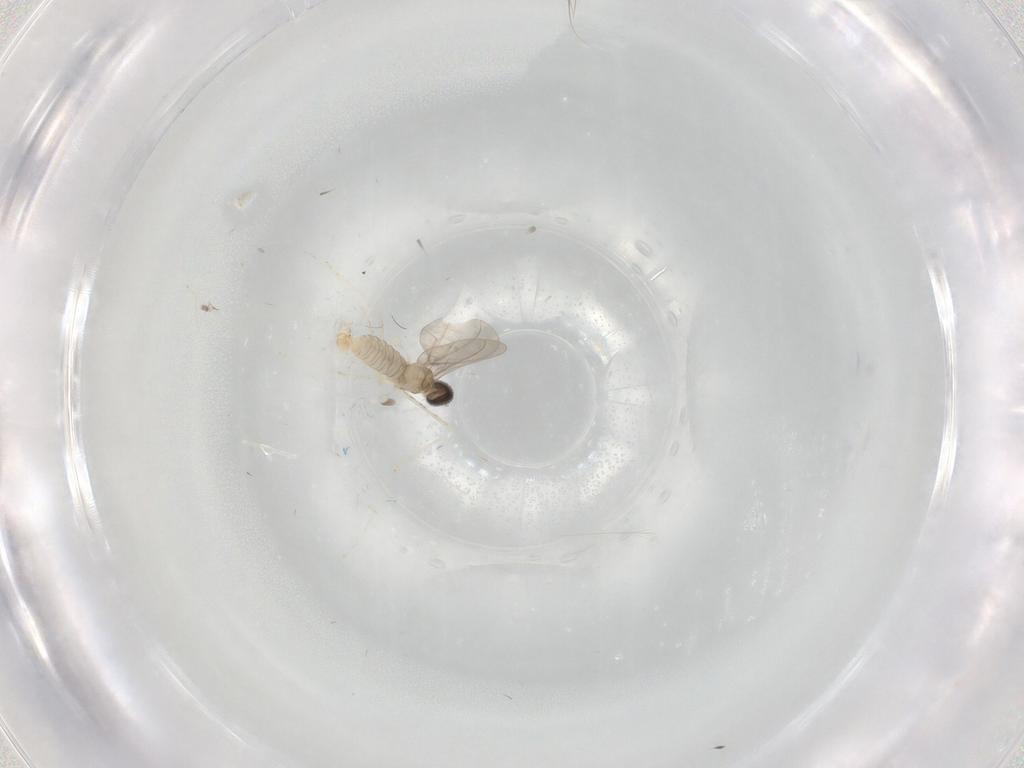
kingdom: Animalia
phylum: Arthropoda
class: Insecta
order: Diptera
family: Cecidomyiidae
